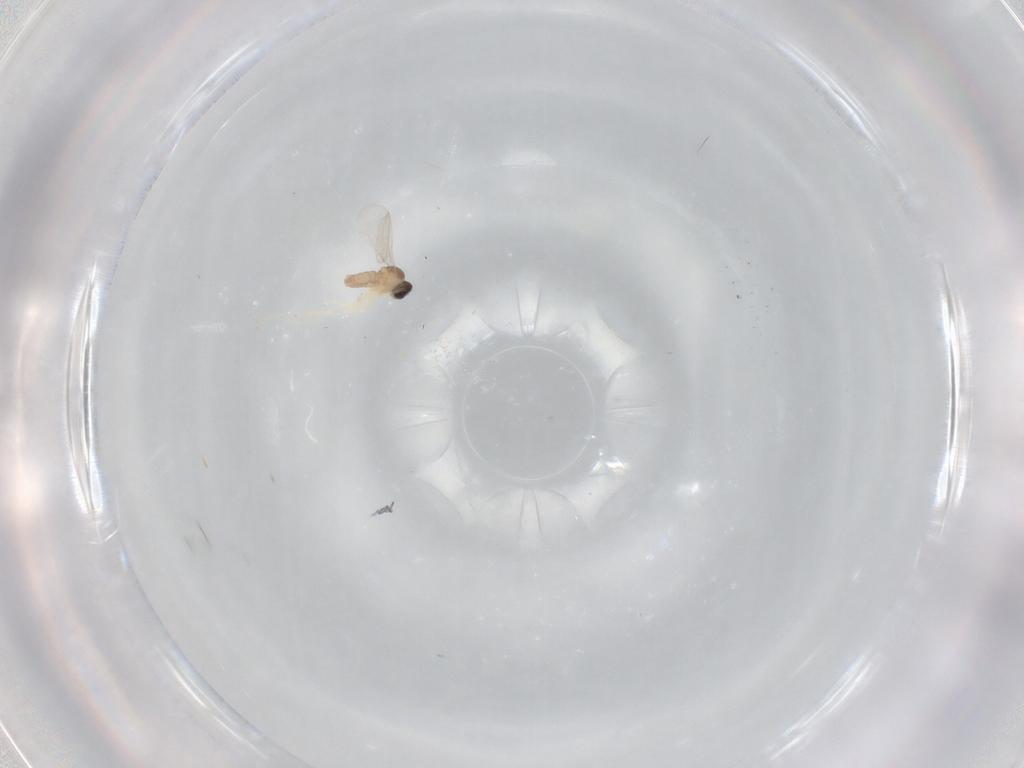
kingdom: Animalia
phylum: Arthropoda
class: Insecta
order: Diptera
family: Cecidomyiidae
